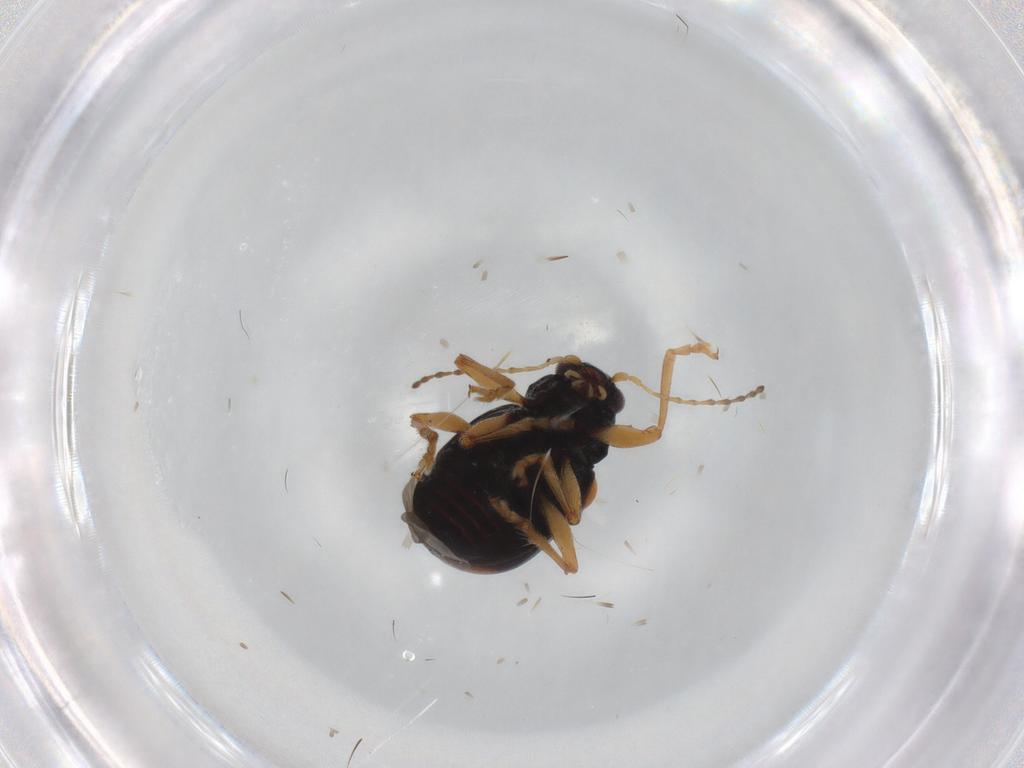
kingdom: Animalia
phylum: Arthropoda
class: Insecta
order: Coleoptera
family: Chrysomelidae
